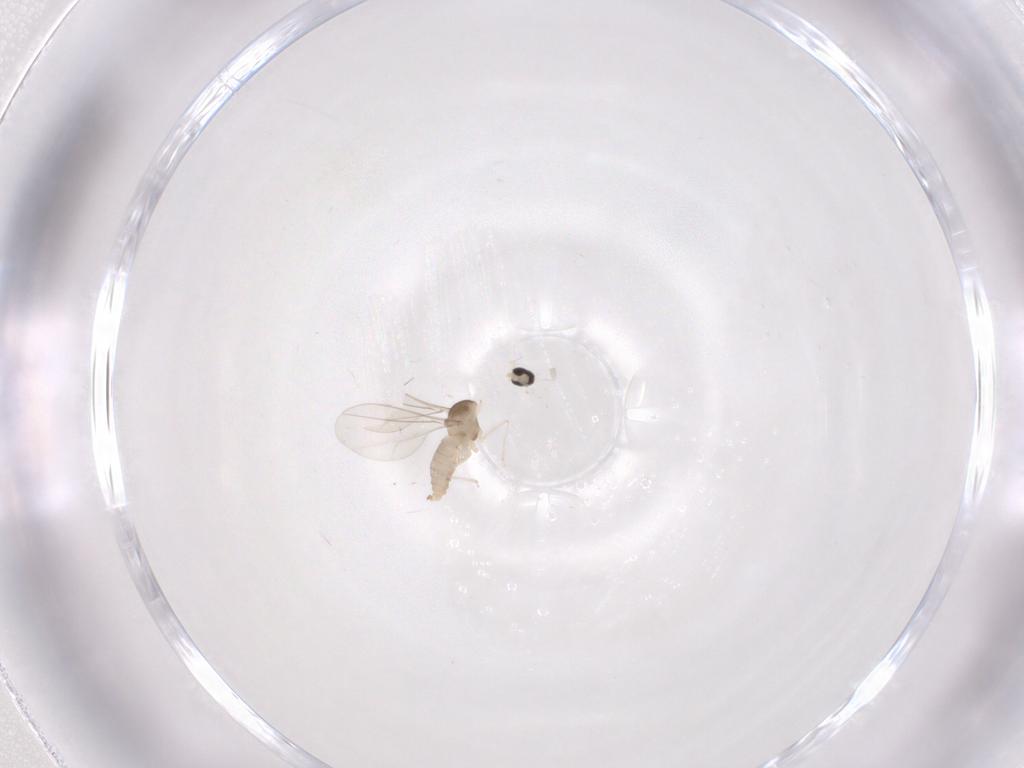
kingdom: Animalia
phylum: Arthropoda
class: Insecta
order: Diptera
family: Cecidomyiidae
